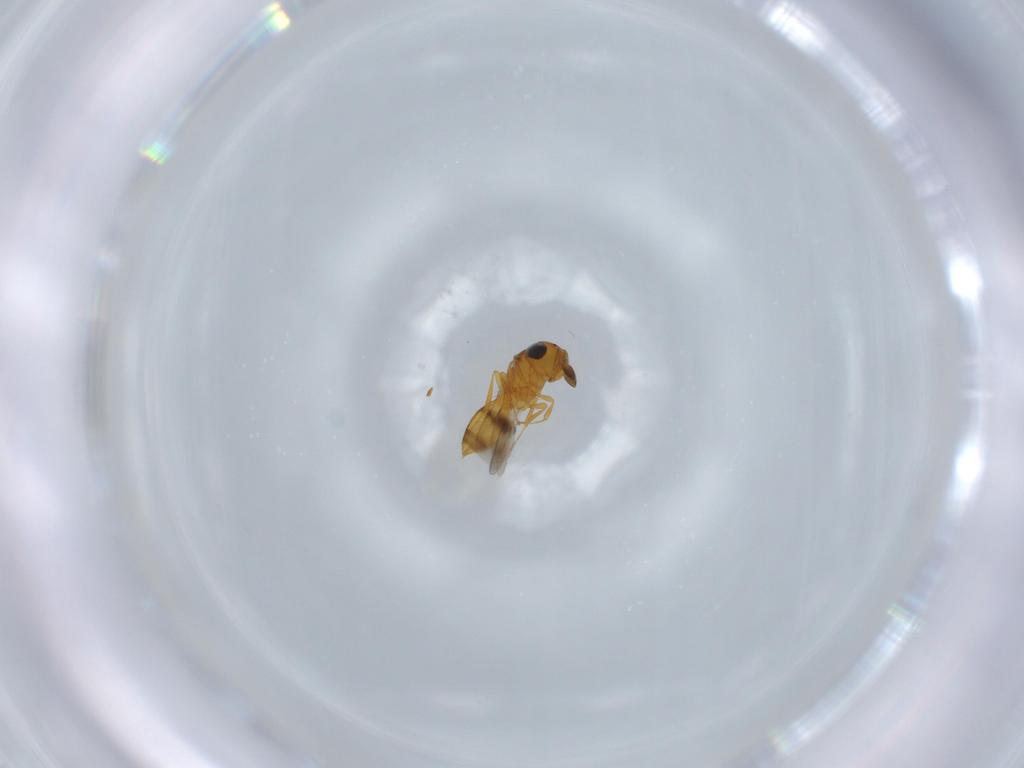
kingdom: Animalia
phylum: Arthropoda
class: Insecta
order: Hymenoptera
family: Scelionidae
